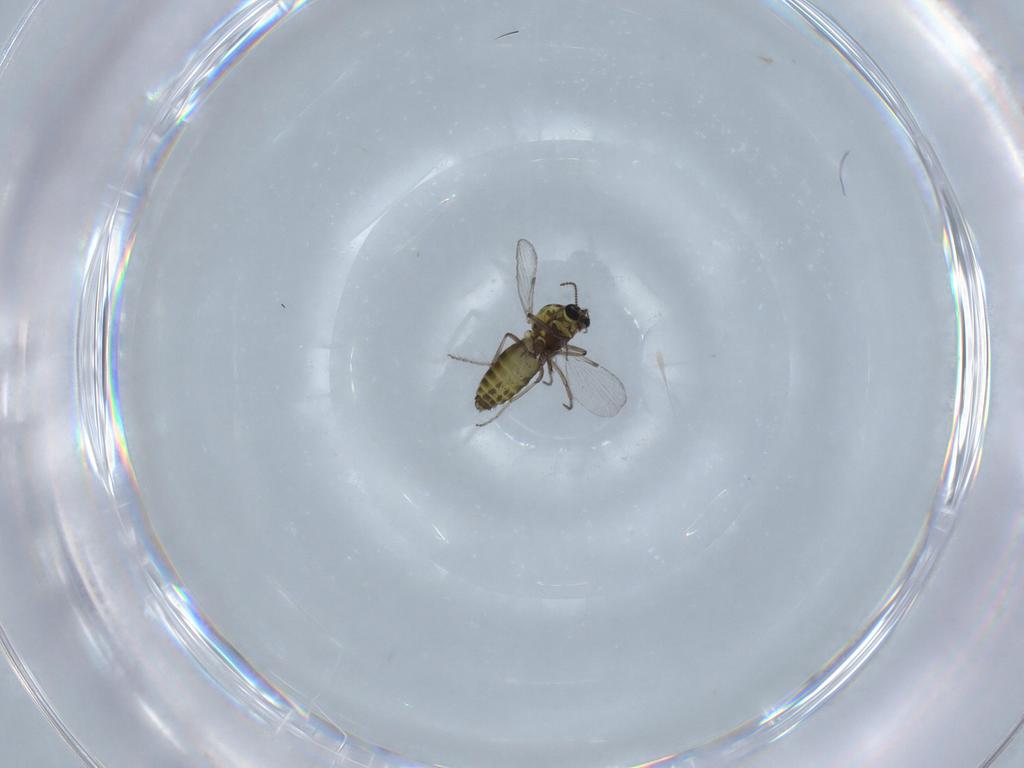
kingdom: Animalia
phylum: Arthropoda
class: Insecta
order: Diptera
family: Ceratopogonidae
